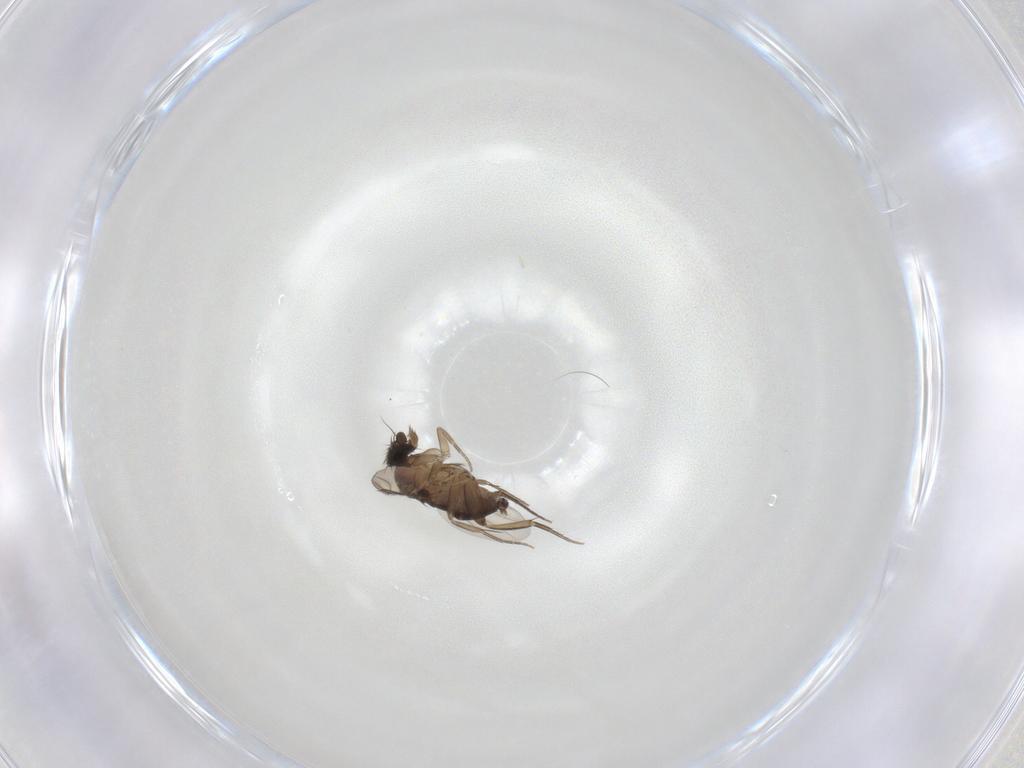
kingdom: Animalia
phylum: Arthropoda
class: Insecta
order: Diptera
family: Phoridae
